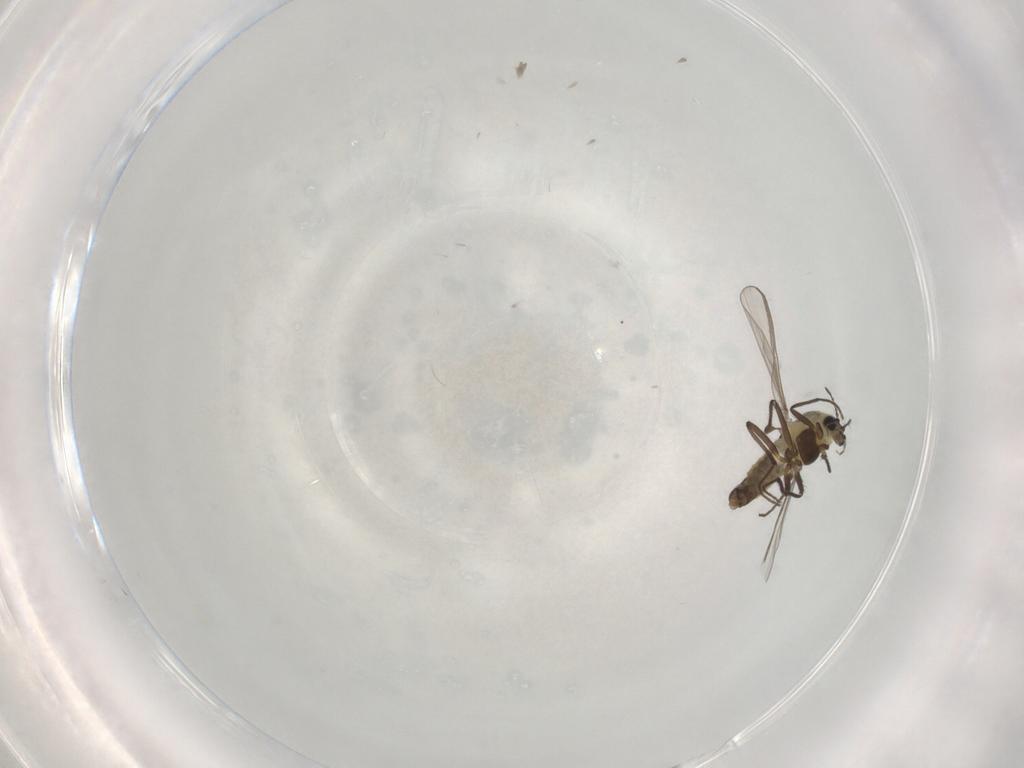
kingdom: Animalia
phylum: Arthropoda
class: Insecta
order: Diptera
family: Chironomidae
